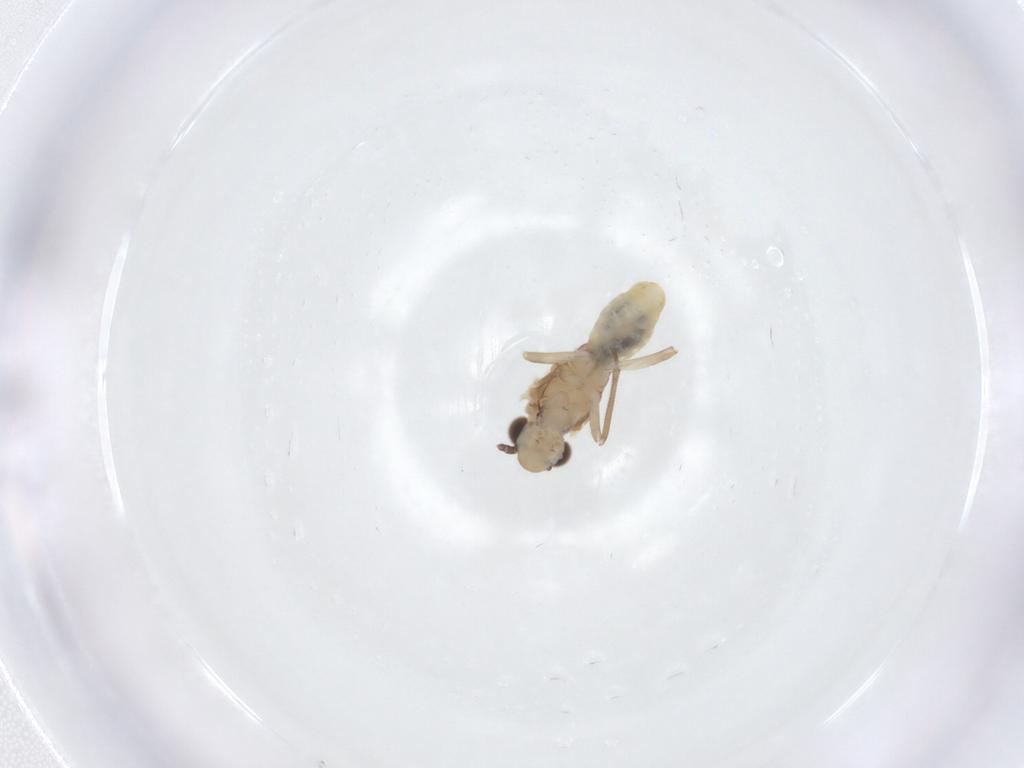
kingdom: Animalia
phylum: Arthropoda
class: Insecta
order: Psocodea
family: Caeciliusidae
